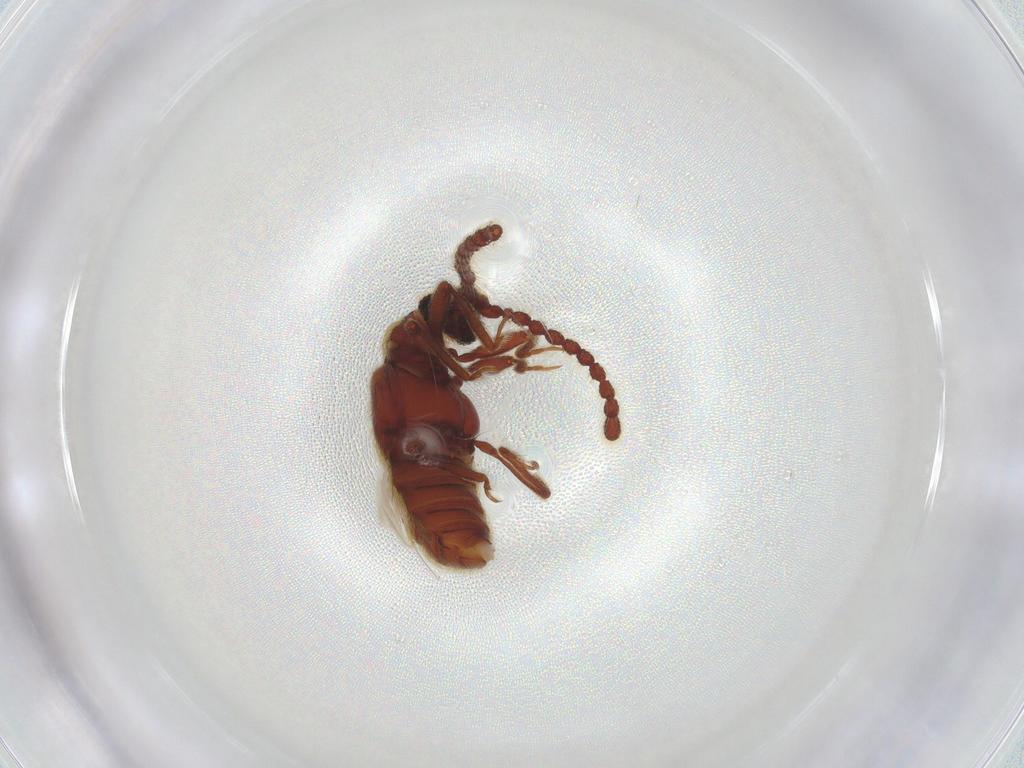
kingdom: Animalia
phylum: Arthropoda
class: Insecta
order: Coleoptera
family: Staphylinidae
